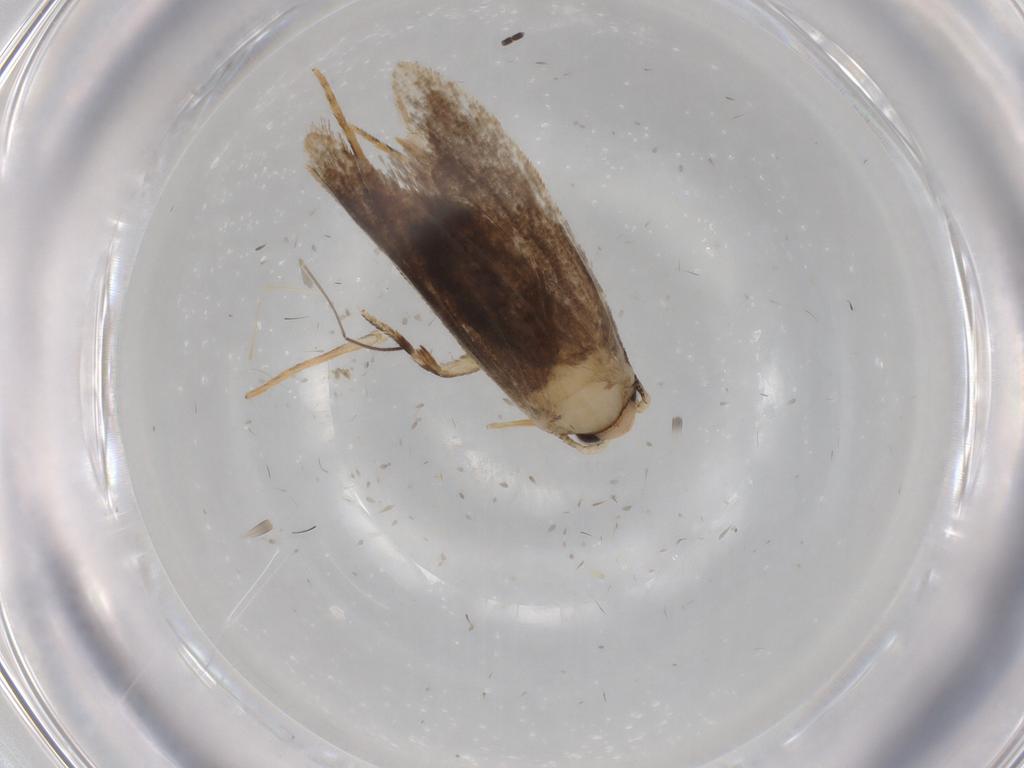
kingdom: Animalia
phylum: Arthropoda
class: Insecta
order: Lepidoptera
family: Tineidae
